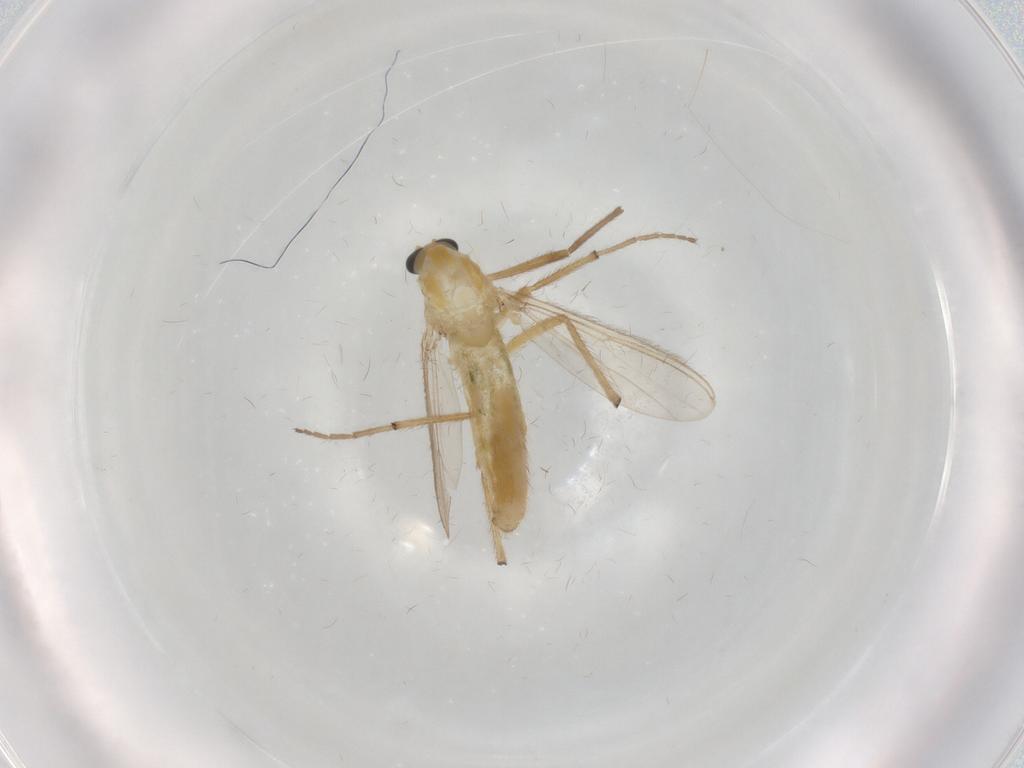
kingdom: Animalia
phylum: Arthropoda
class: Insecta
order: Diptera
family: Chironomidae
